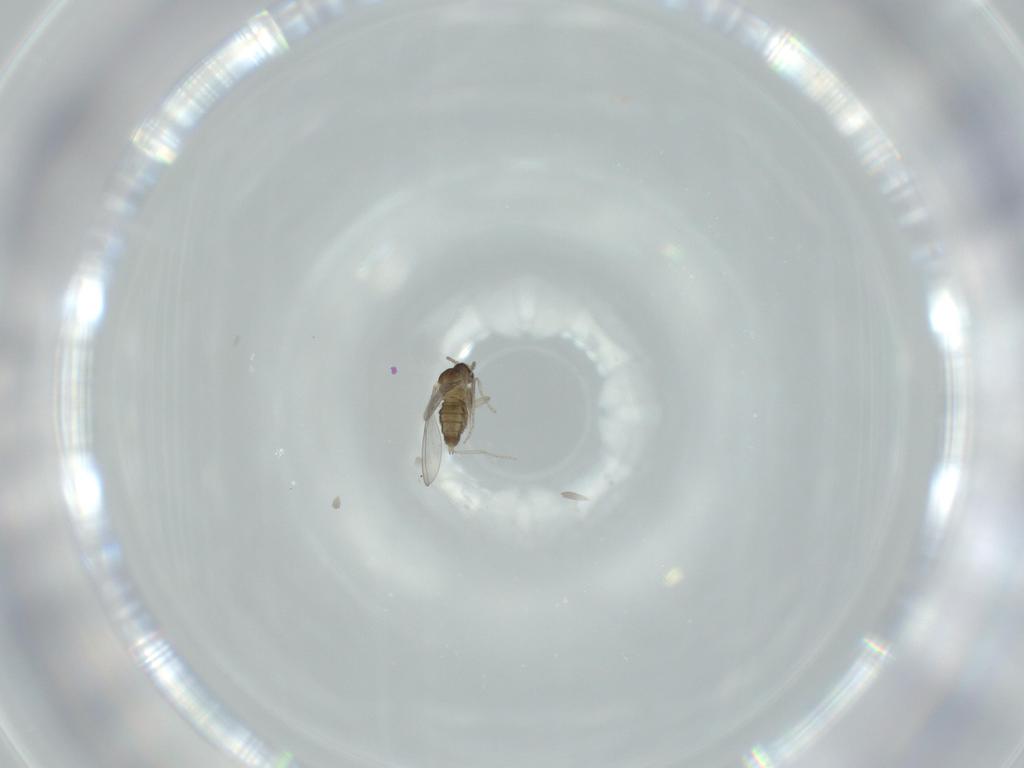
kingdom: Animalia
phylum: Arthropoda
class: Insecta
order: Diptera
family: Cecidomyiidae
